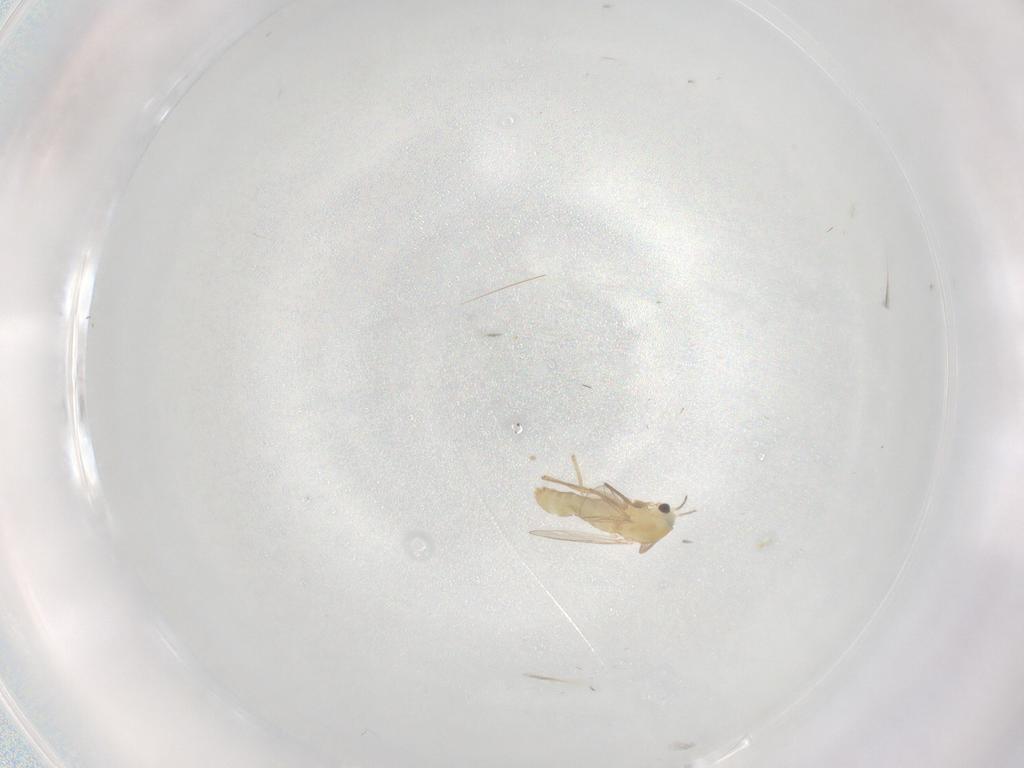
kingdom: Animalia
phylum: Arthropoda
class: Insecta
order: Diptera
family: Chironomidae
